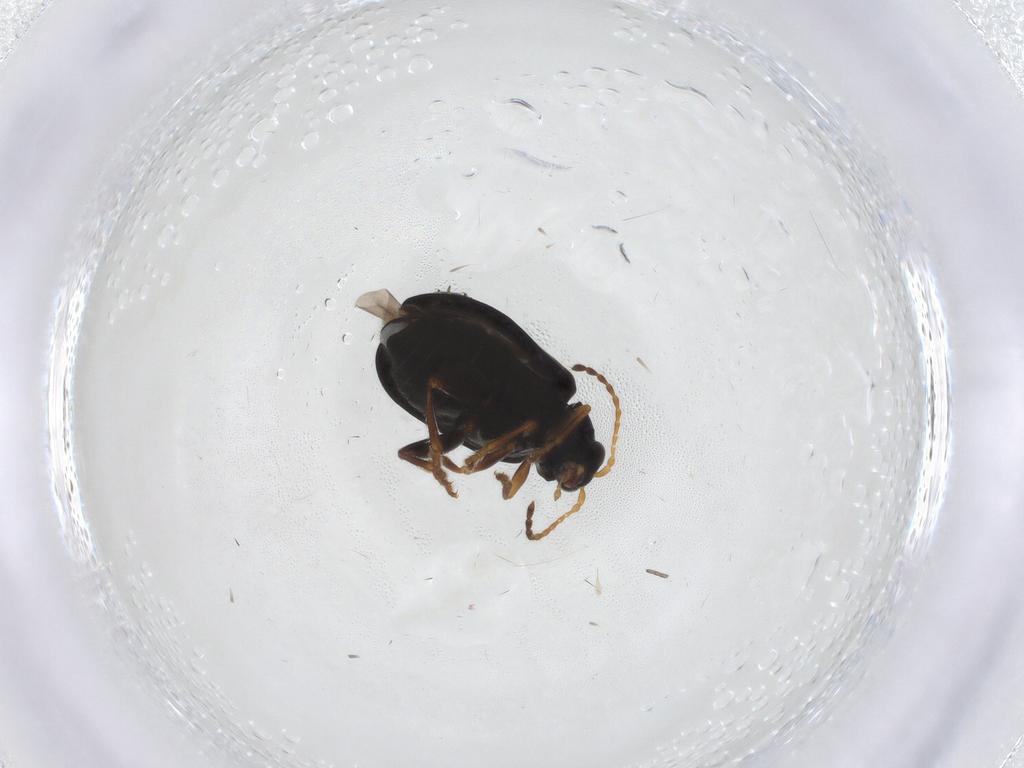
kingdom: Animalia
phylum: Arthropoda
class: Insecta
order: Coleoptera
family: Chrysomelidae
